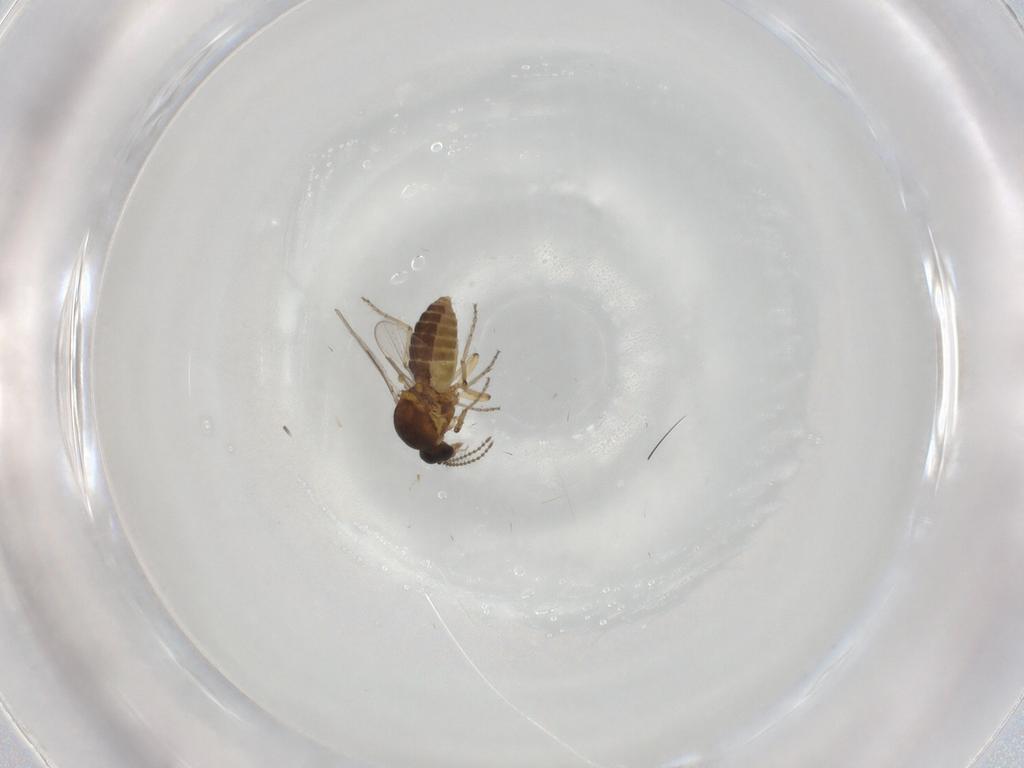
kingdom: Animalia
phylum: Arthropoda
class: Insecta
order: Diptera
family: Ceratopogonidae
